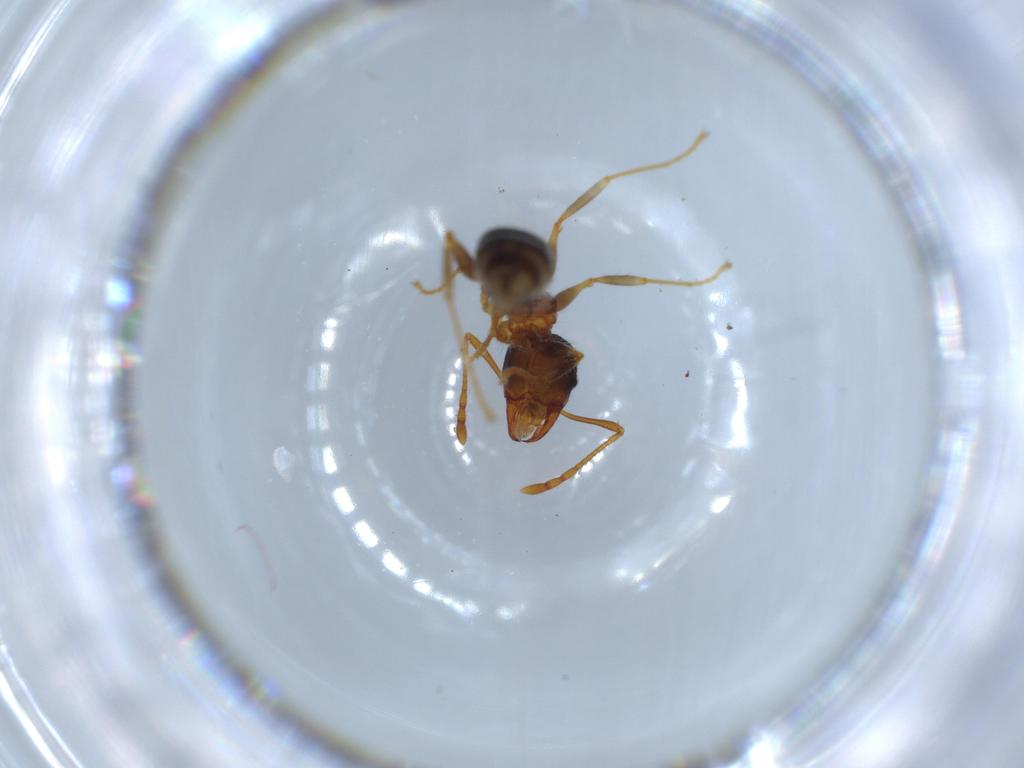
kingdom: Animalia
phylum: Arthropoda
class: Insecta
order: Hymenoptera
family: Formicidae
